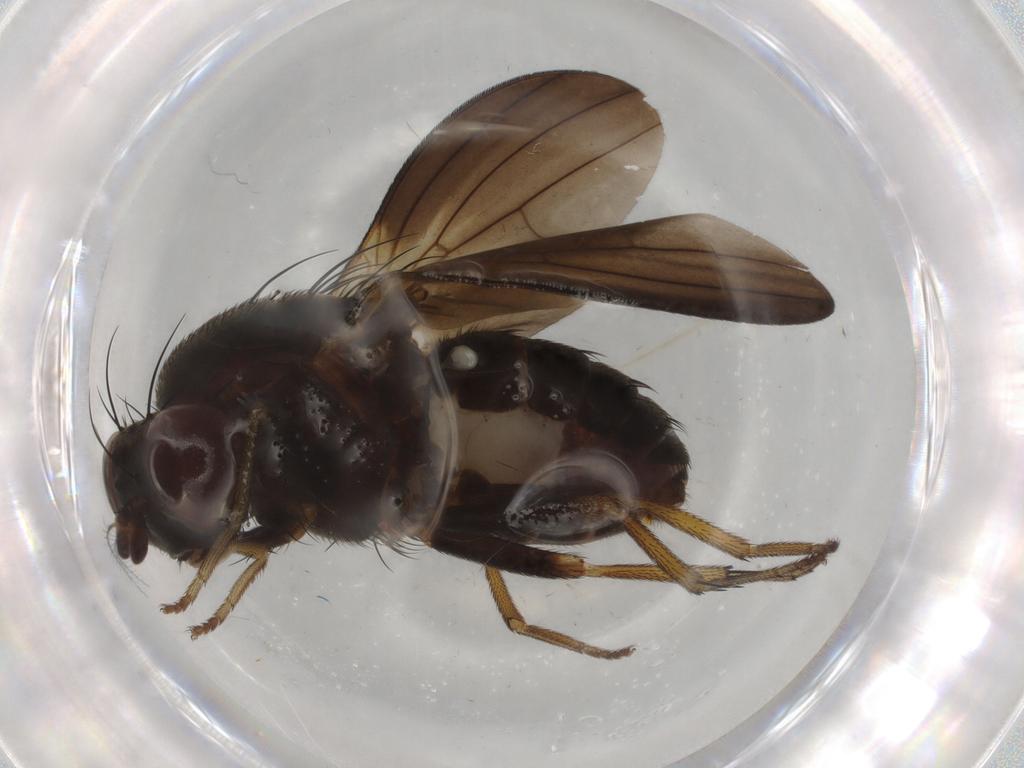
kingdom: Animalia
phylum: Arthropoda
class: Insecta
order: Diptera
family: Chironomidae
